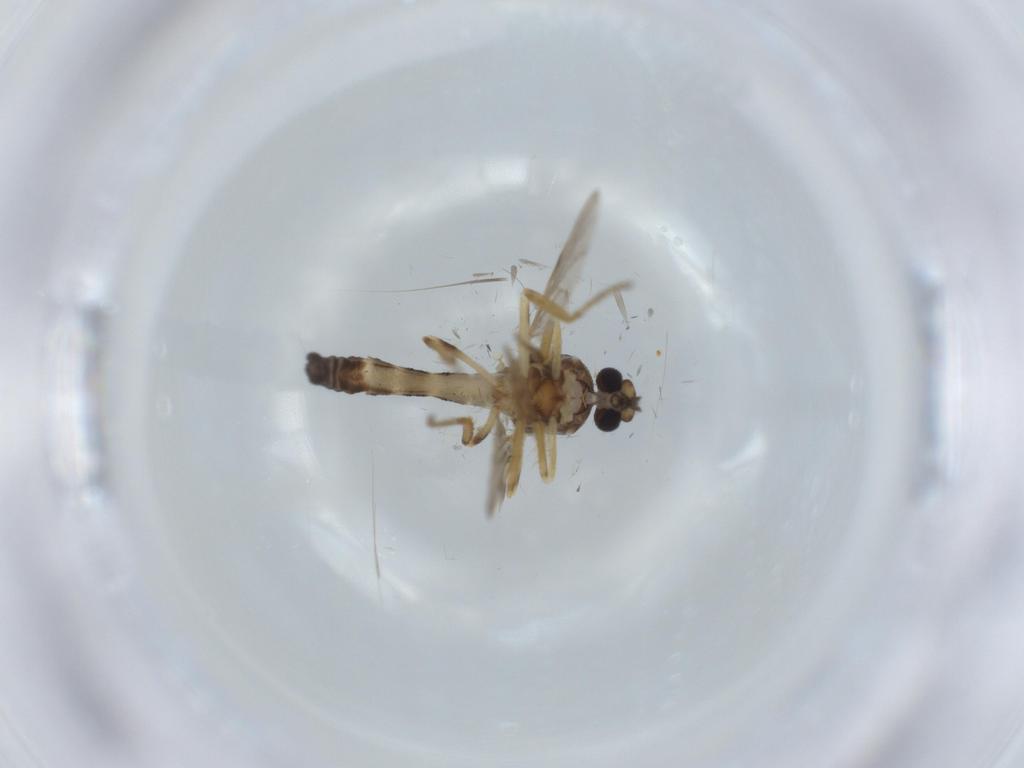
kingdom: Animalia
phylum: Arthropoda
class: Insecta
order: Diptera
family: Ceratopogonidae
